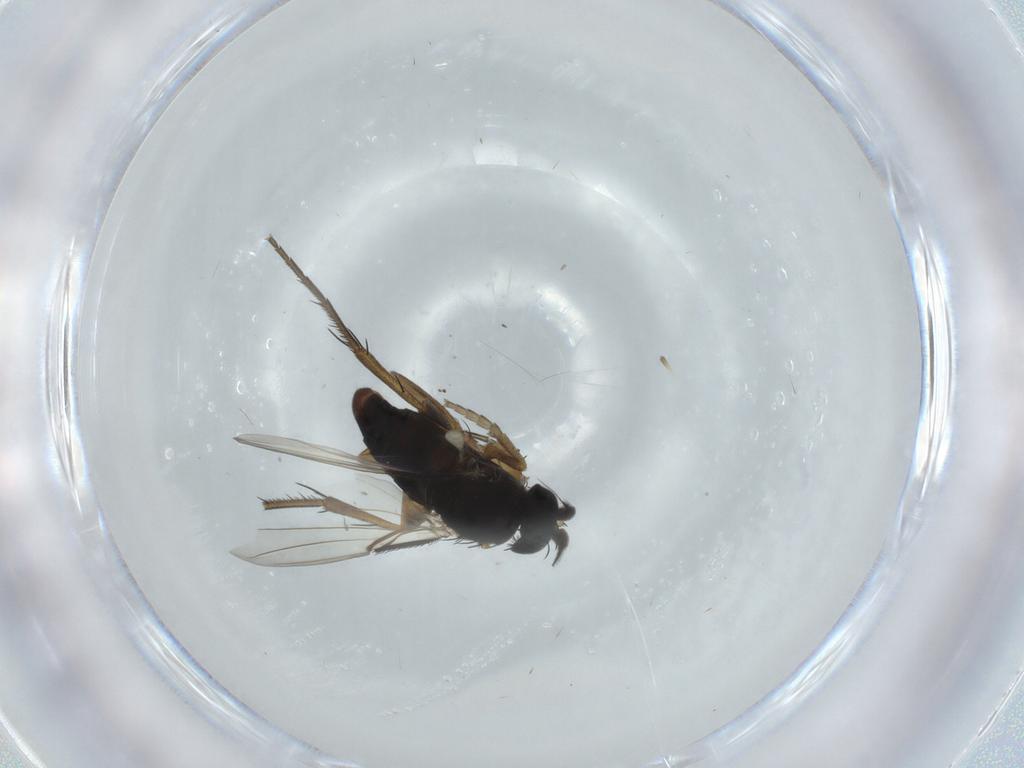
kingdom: Animalia
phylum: Arthropoda
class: Insecta
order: Diptera
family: Phoridae
